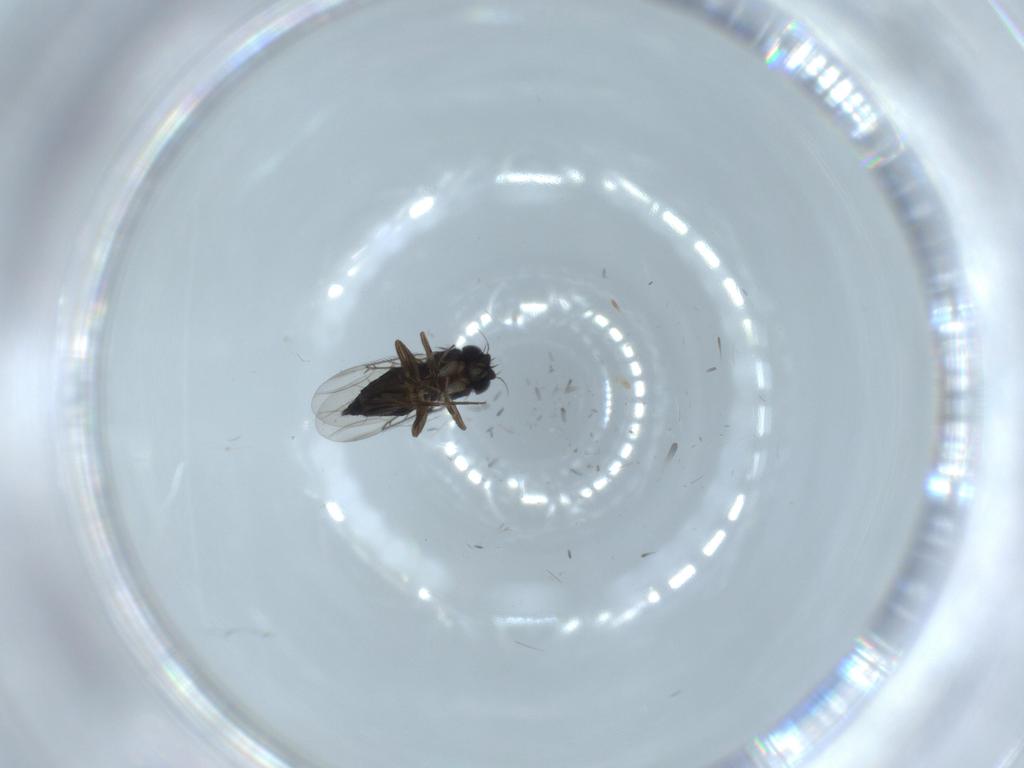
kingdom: Animalia
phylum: Arthropoda
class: Insecta
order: Diptera
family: Phoridae
